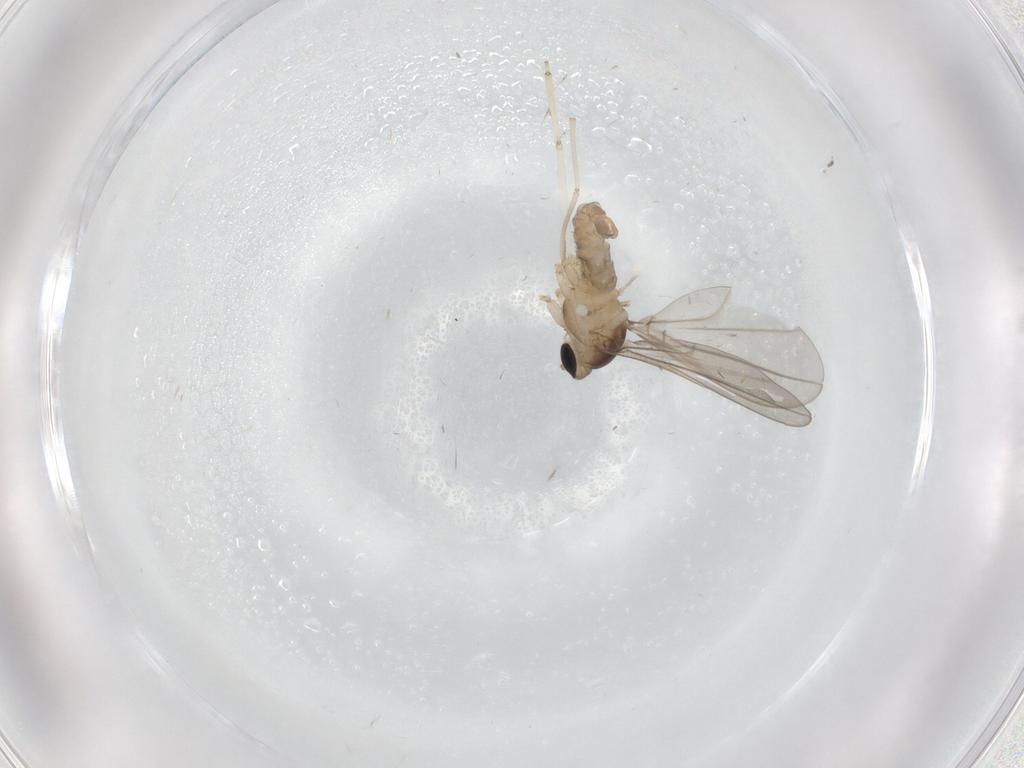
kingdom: Animalia
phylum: Arthropoda
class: Insecta
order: Diptera
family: Cecidomyiidae
